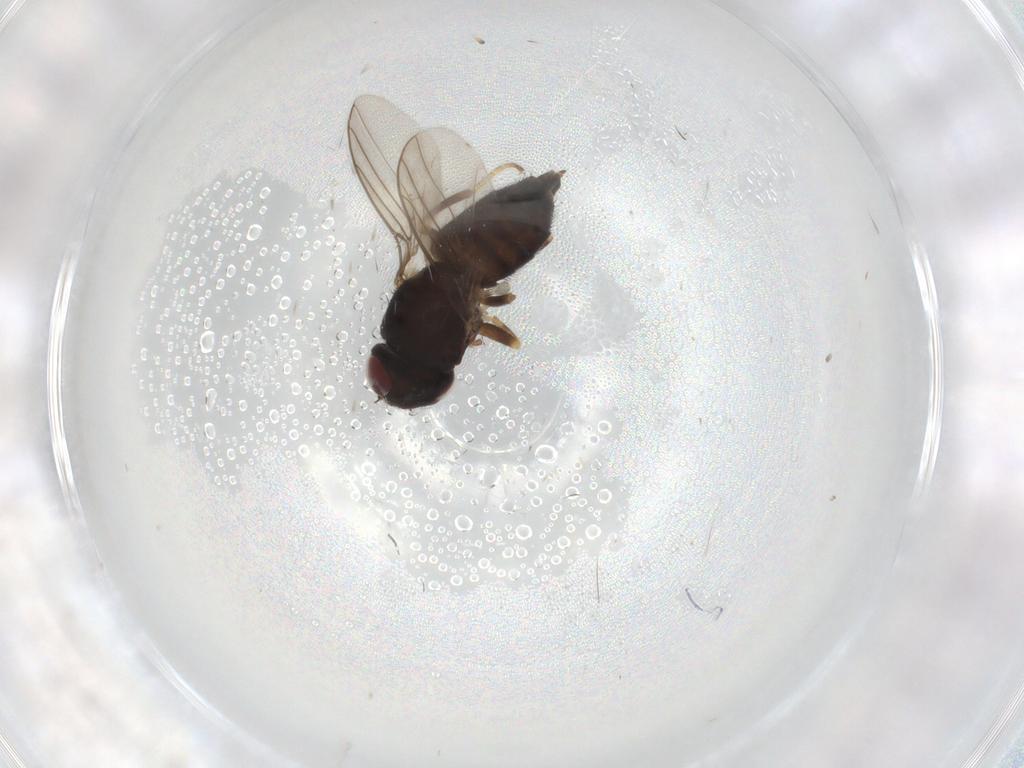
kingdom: Animalia
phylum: Arthropoda
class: Insecta
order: Diptera
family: Chloropidae
